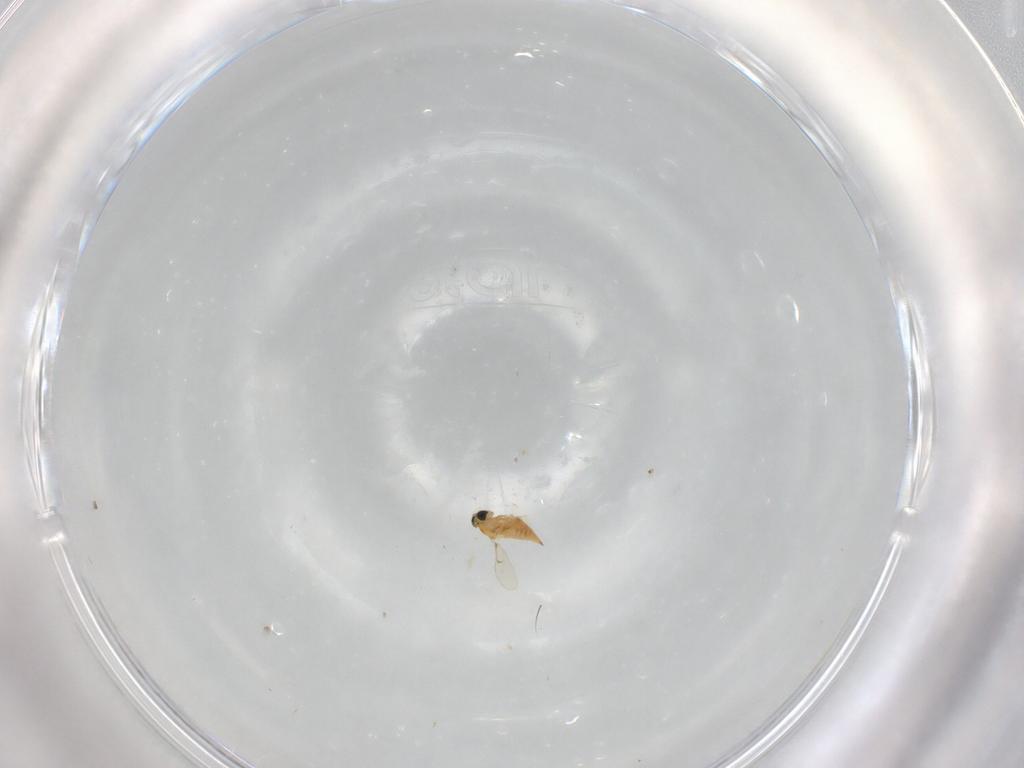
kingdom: Animalia
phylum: Arthropoda
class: Insecta
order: Hymenoptera
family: Trichogrammatidae
